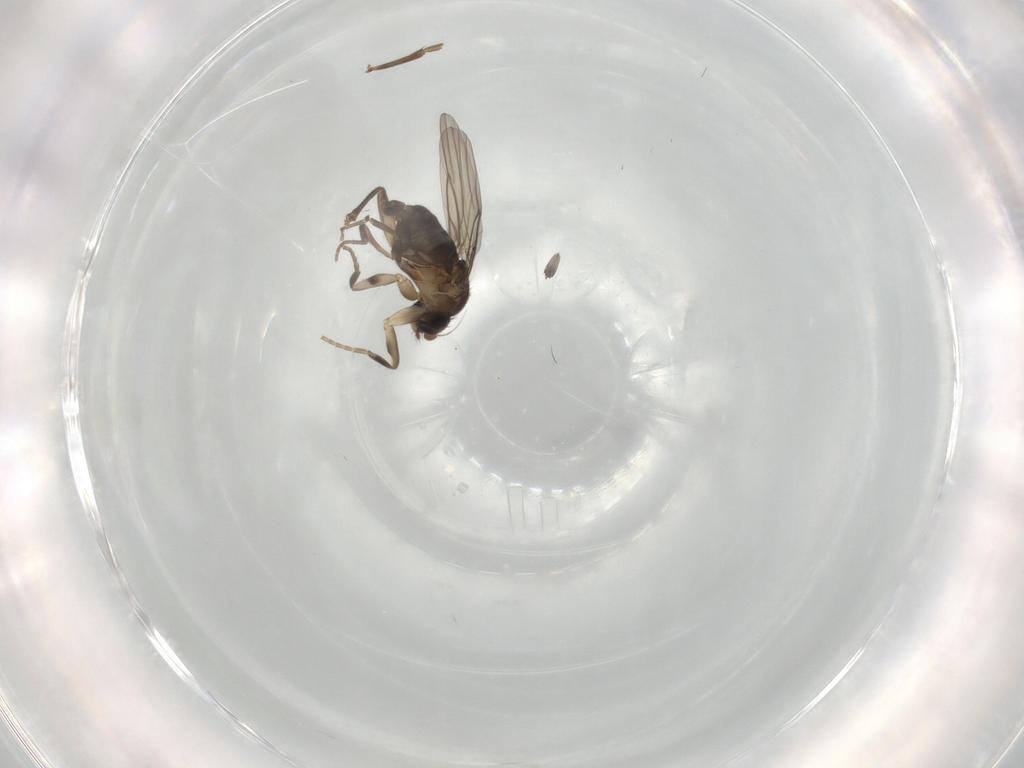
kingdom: Animalia
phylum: Arthropoda
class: Insecta
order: Diptera
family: Phoridae
